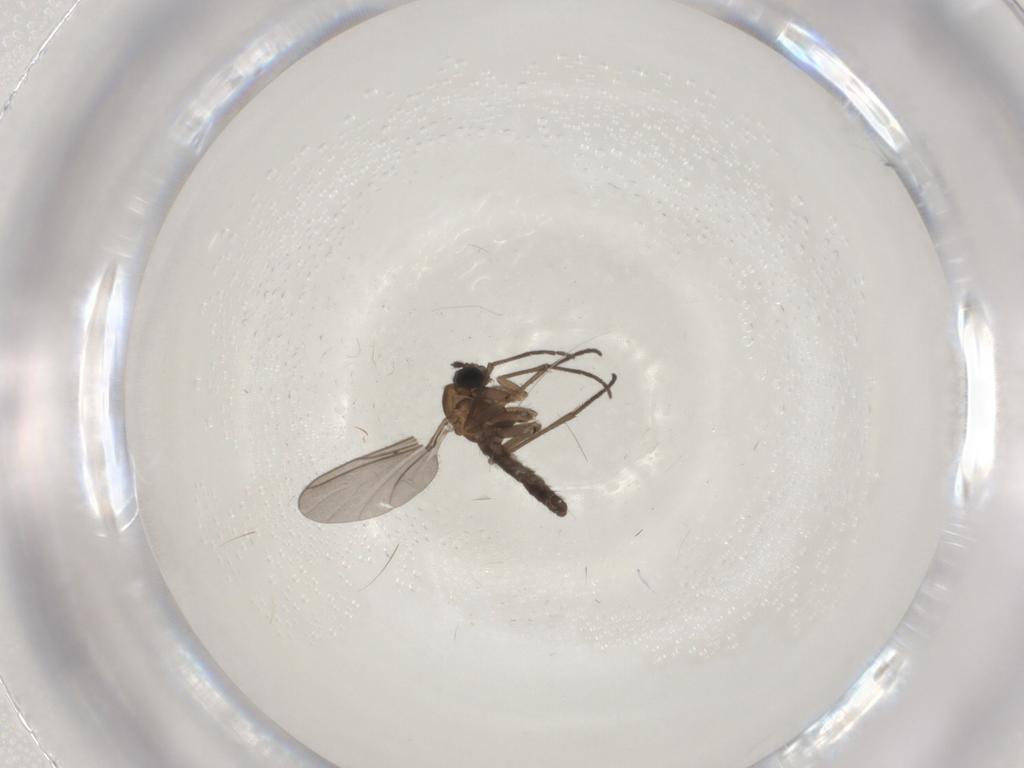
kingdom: Animalia
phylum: Arthropoda
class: Insecta
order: Diptera
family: Sciaridae
